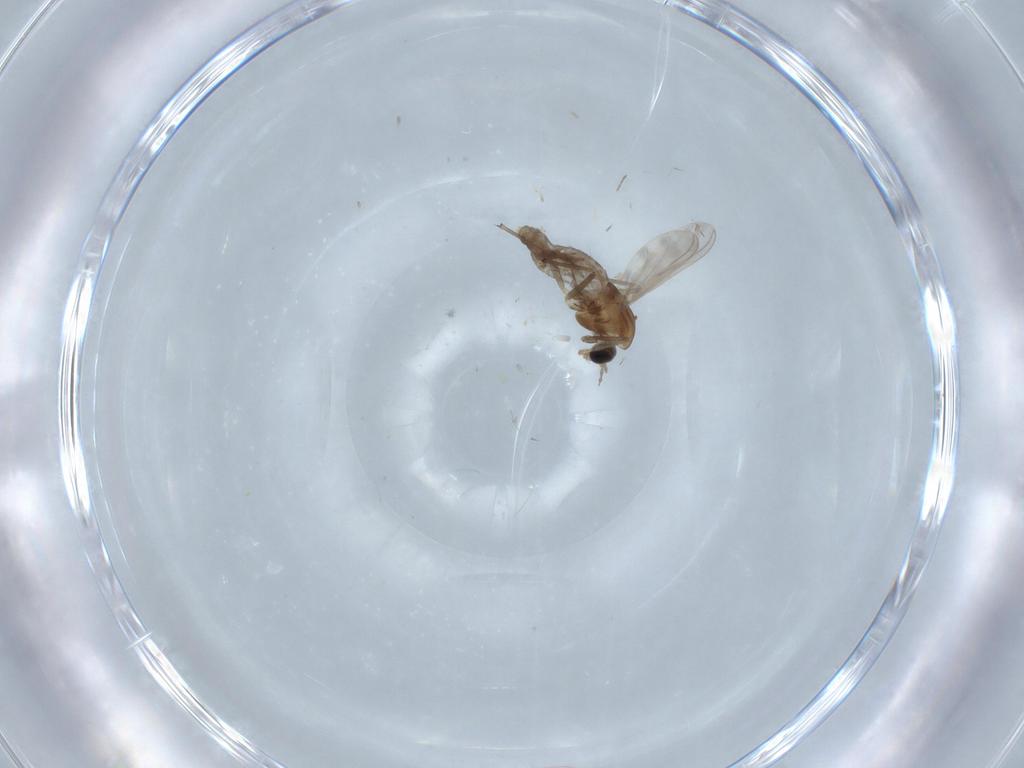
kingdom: Animalia
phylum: Arthropoda
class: Insecta
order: Diptera
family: Chironomidae
